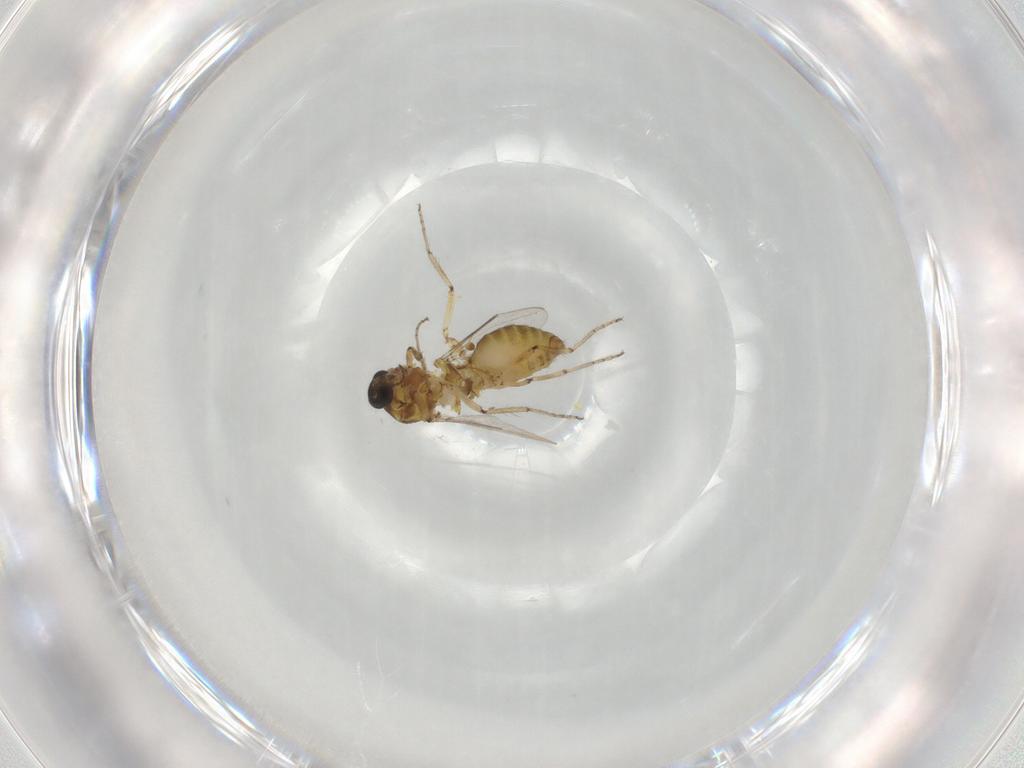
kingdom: Animalia
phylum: Arthropoda
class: Insecta
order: Diptera
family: Ceratopogonidae
